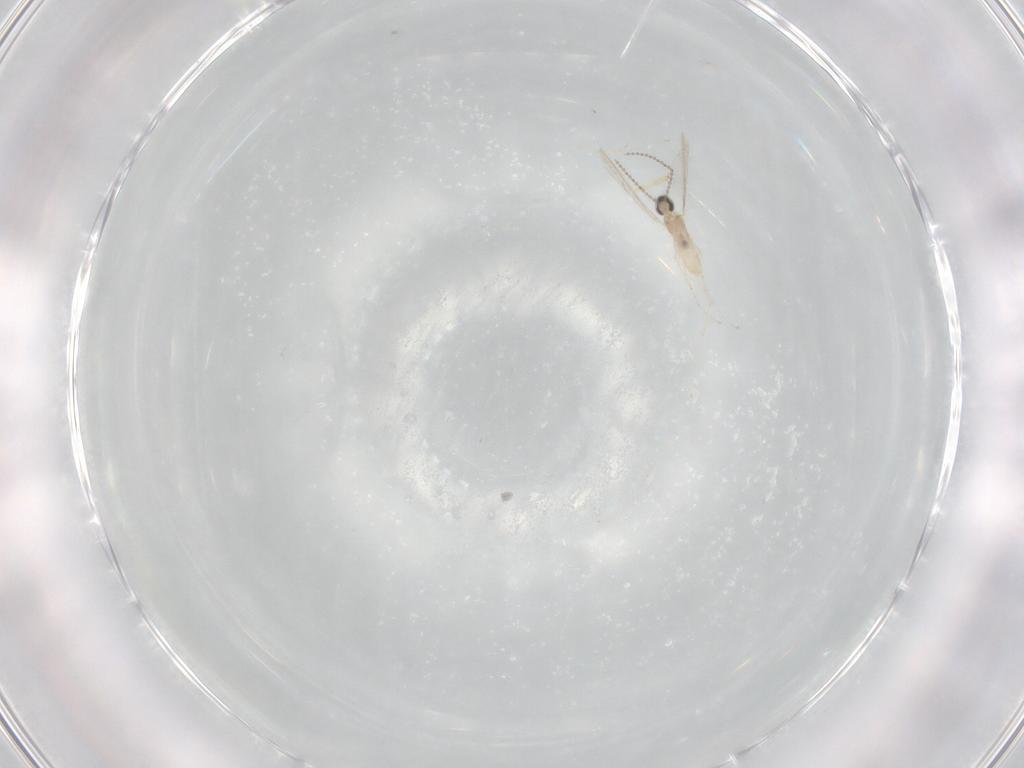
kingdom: Animalia
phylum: Arthropoda
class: Insecta
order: Diptera
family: Cecidomyiidae
